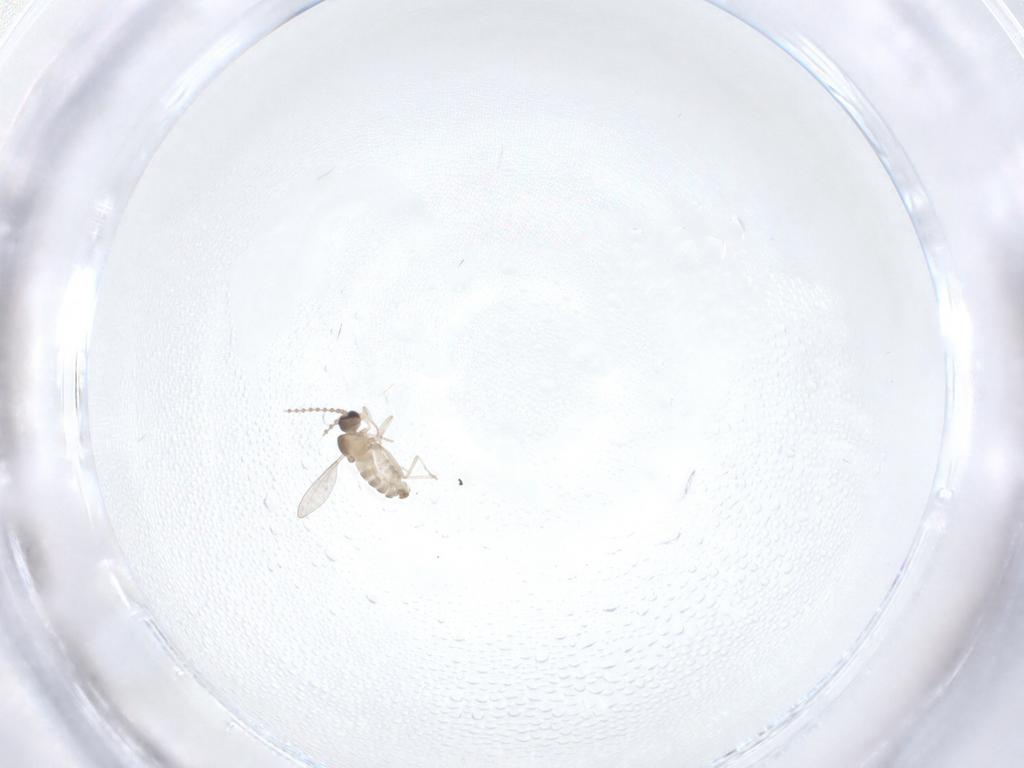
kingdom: Animalia
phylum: Arthropoda
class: Insecta
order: Diptera
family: Cecidomyiidae
